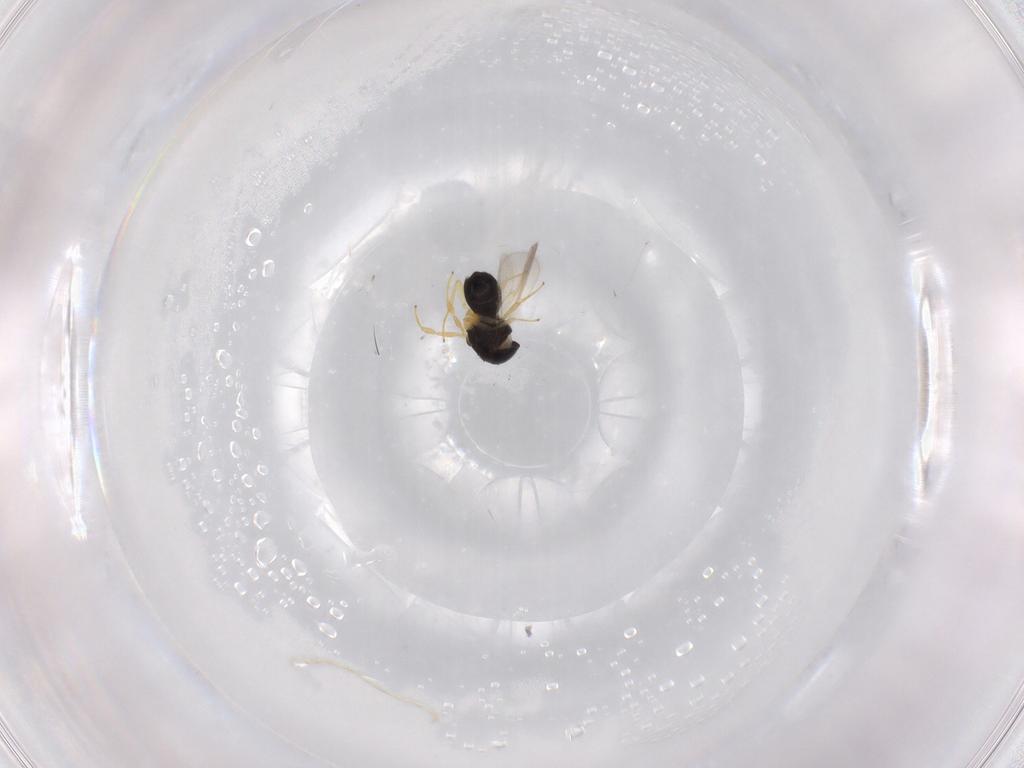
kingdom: Animalia
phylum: Arthropoda
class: Insecta
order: Hymenoptera
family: Scelionidae
